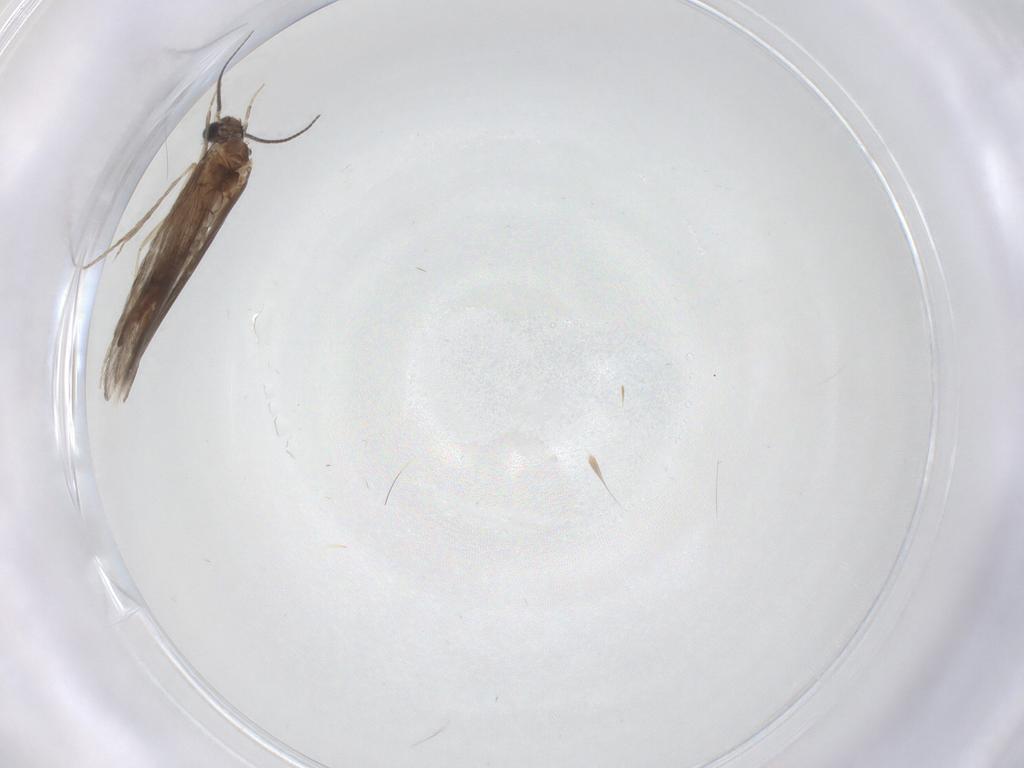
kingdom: Animalia
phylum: Arthropoda
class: Insecta
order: Trichoptera
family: Hydroptilidae
